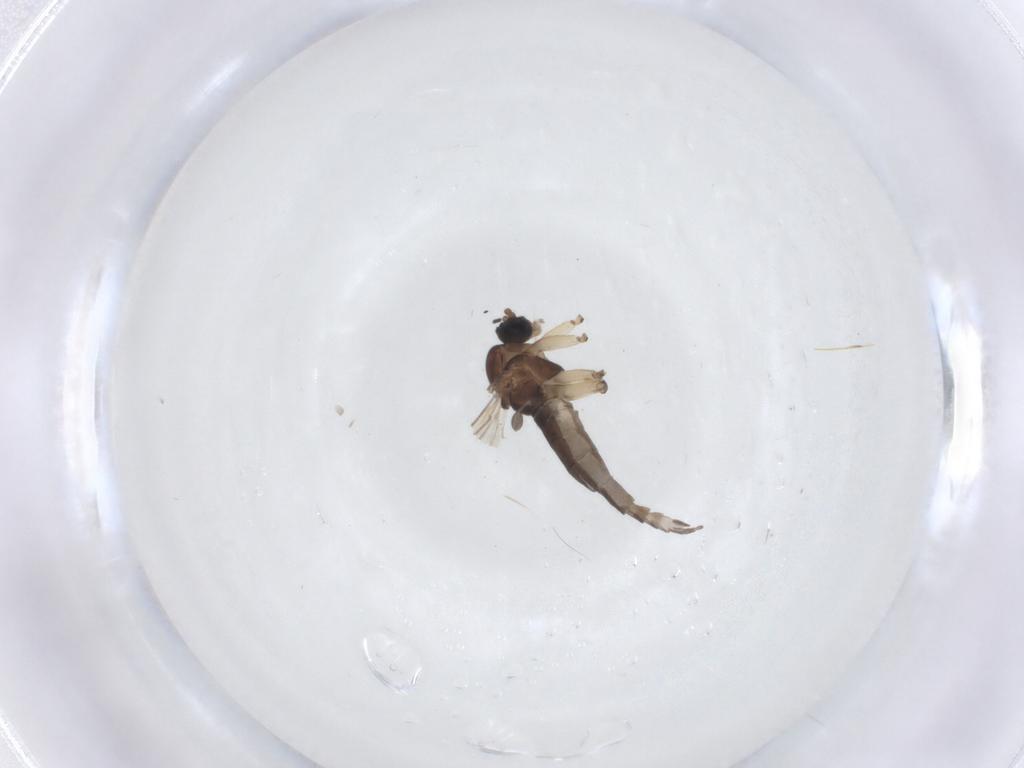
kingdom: Animalia
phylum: Arthropoda
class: Insecta
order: Diptera
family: Sciaridae
